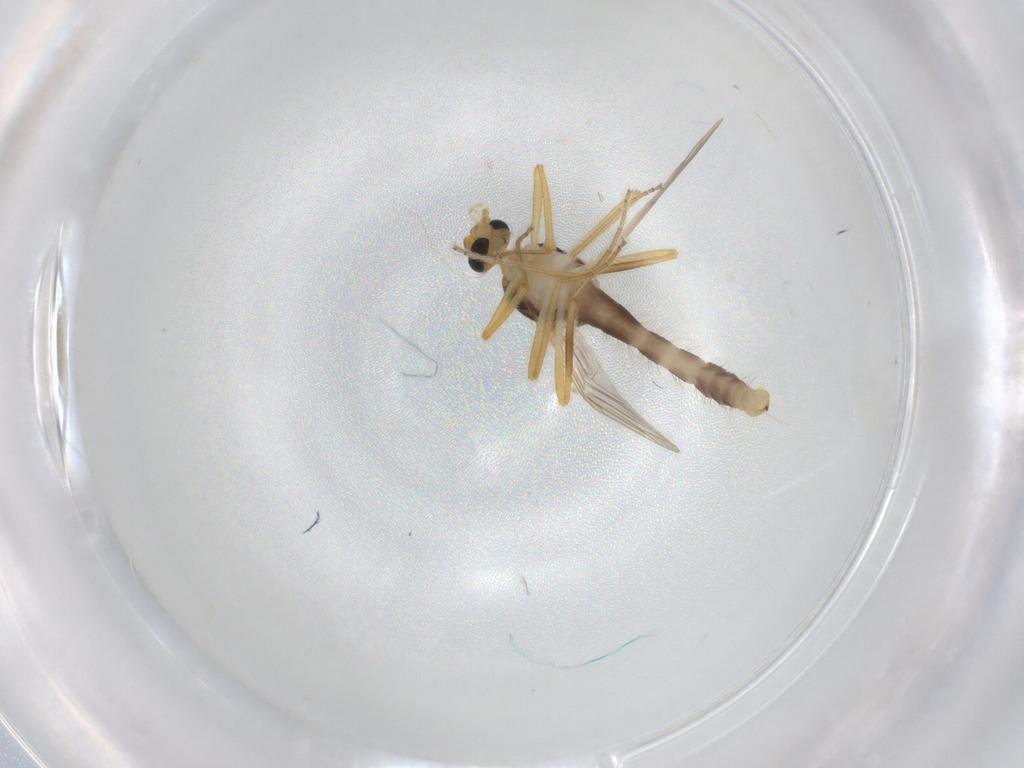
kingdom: Animalia
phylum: Arthropoda
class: Insecta
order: Diptera
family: Ceratopogonidae
